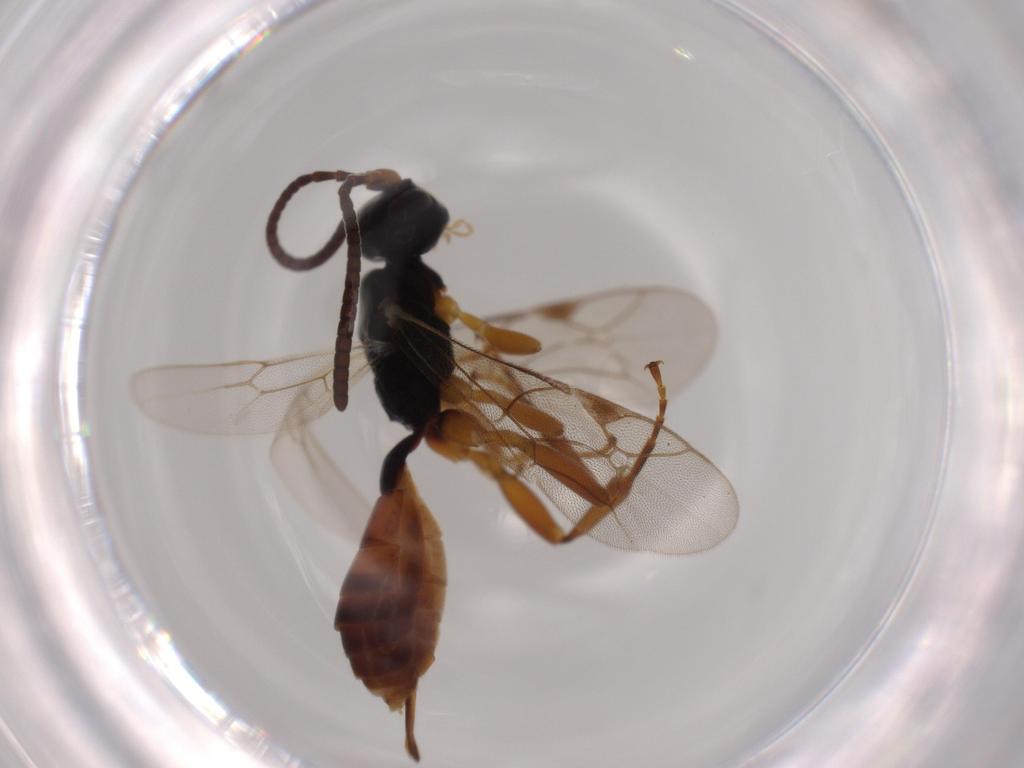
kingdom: Animalia
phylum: Arthropoda
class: Insecta
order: Hymenoptera
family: Ichneumonidae
